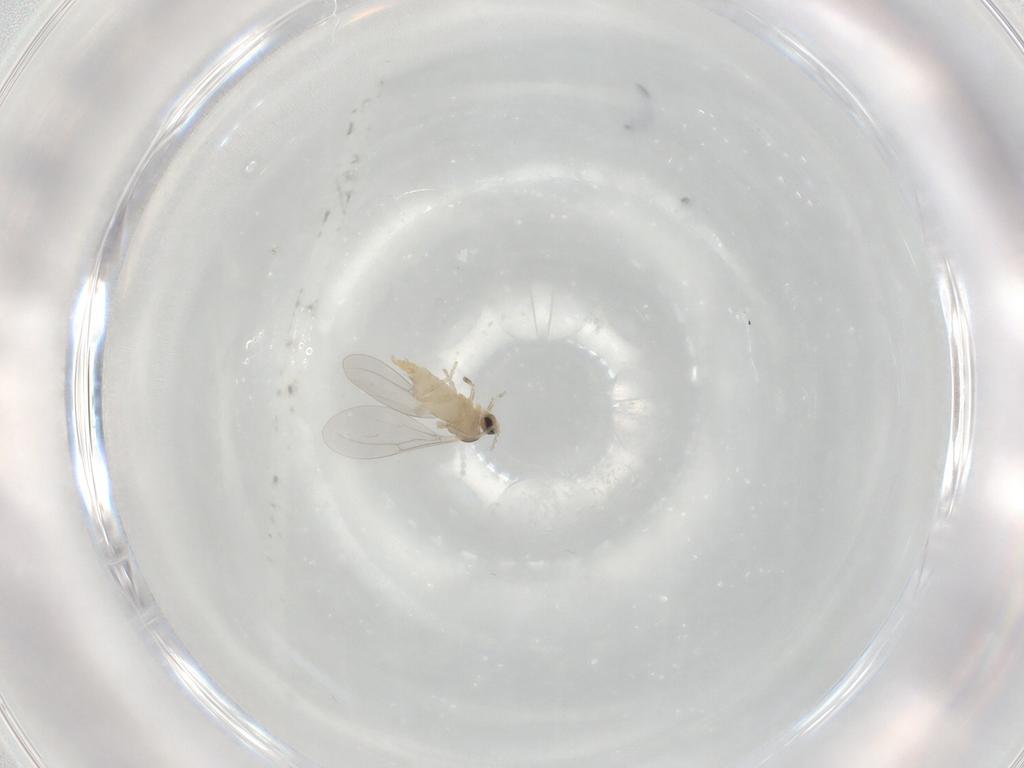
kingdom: Animalia
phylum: Arthropoda
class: Insecta
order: Diptera
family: Cecidomyiidae
